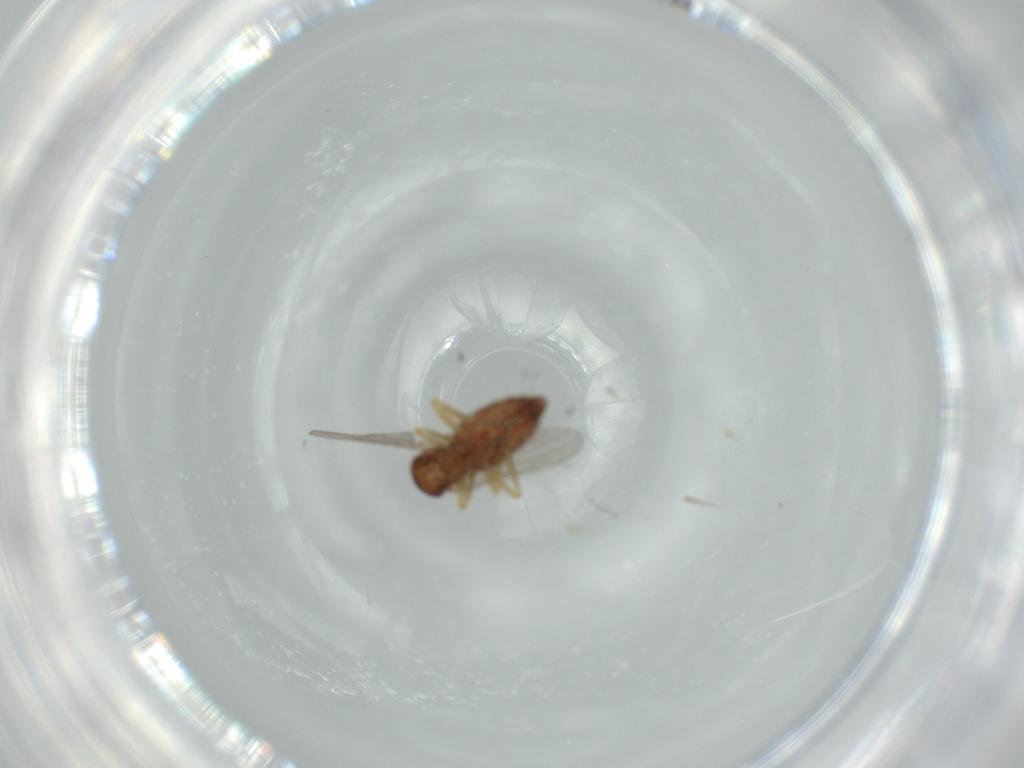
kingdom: Animalia
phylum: Arthropoda
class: Insecta
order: Diptera
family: Ceratopogonidae
